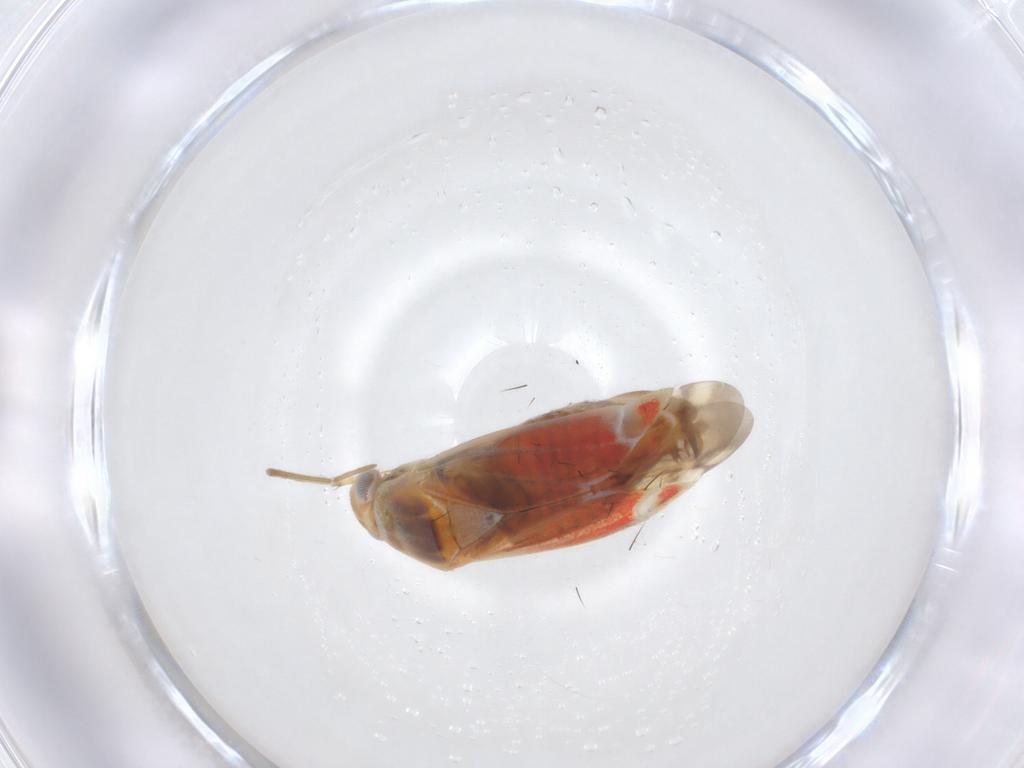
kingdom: Animalia
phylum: Arthropoda
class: Insecta
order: Hemiptera
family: Miridae
